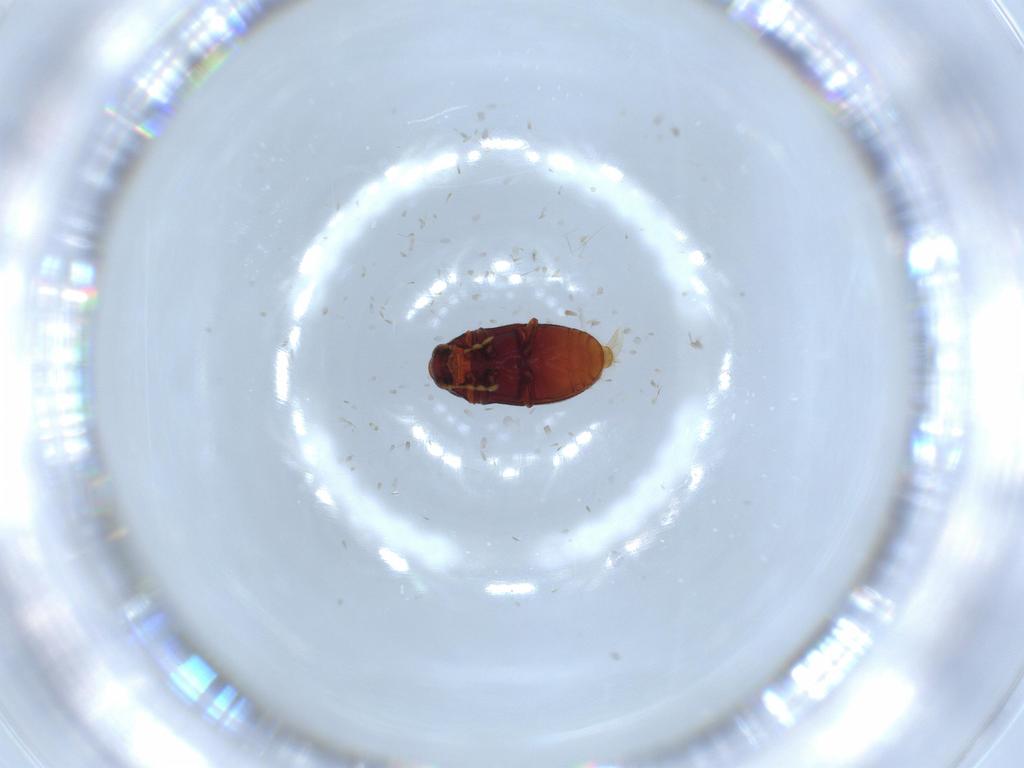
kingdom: Animalia
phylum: Arthropoda
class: Insecta
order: Coleoptera
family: Ptinidae
